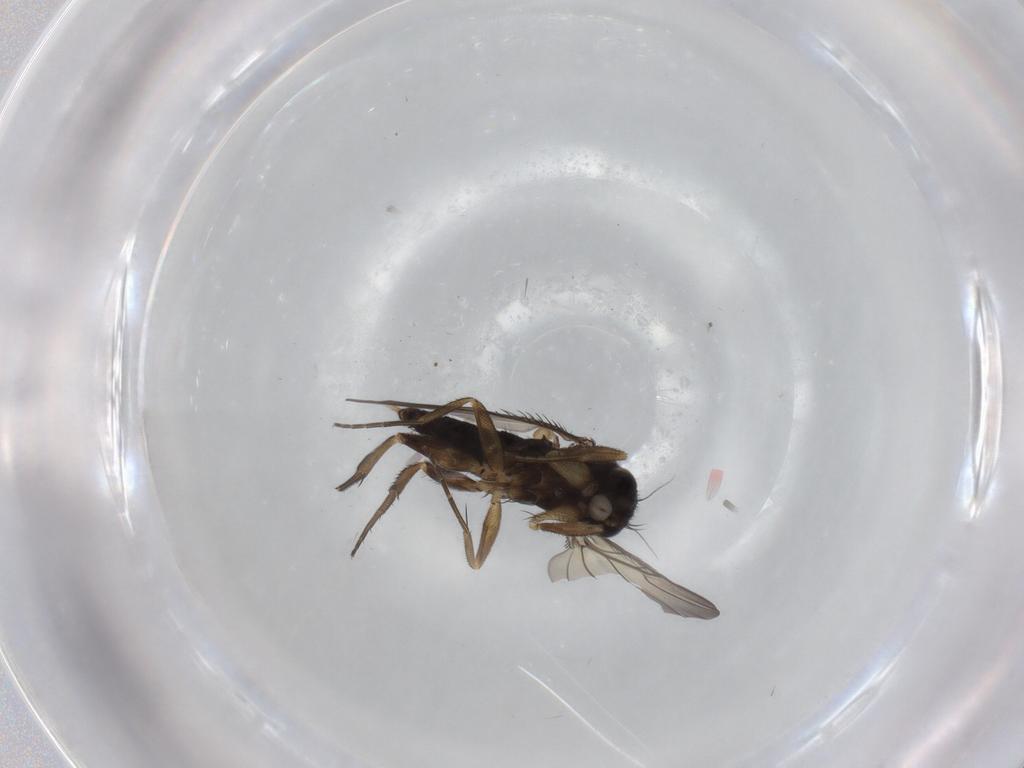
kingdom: Animalia
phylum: Arthropoda
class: Insecta
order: Diptera
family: Phoridae
